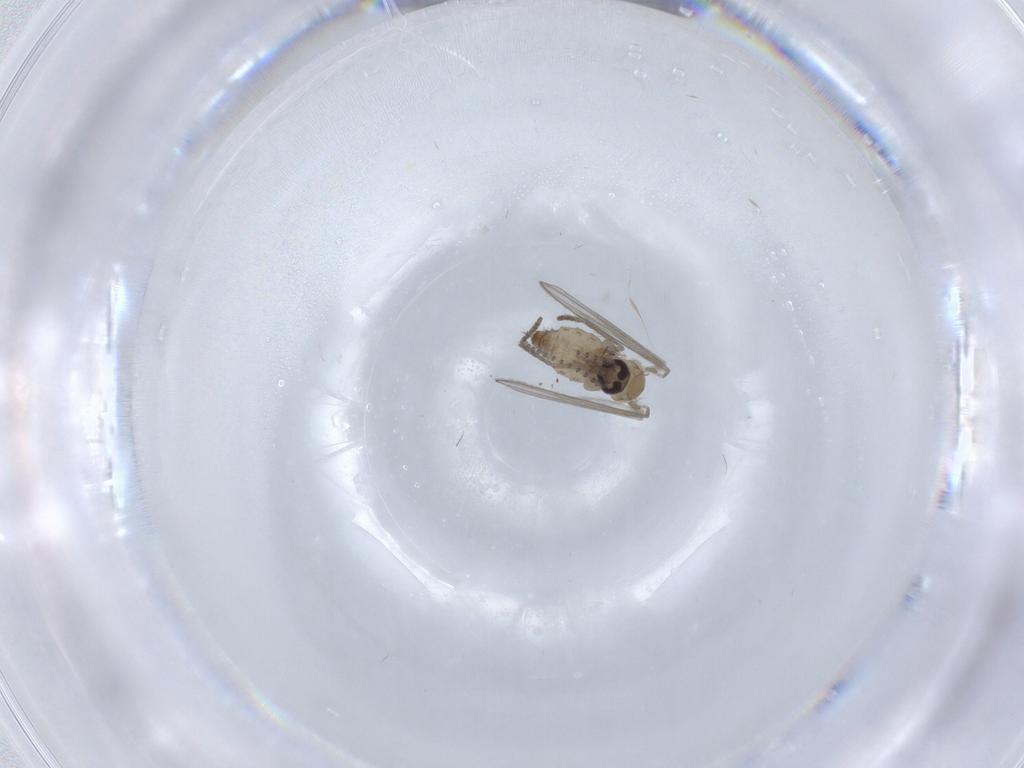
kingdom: Animalia
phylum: Arthropoda
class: Insecta
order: Diptera
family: Psychodidae
